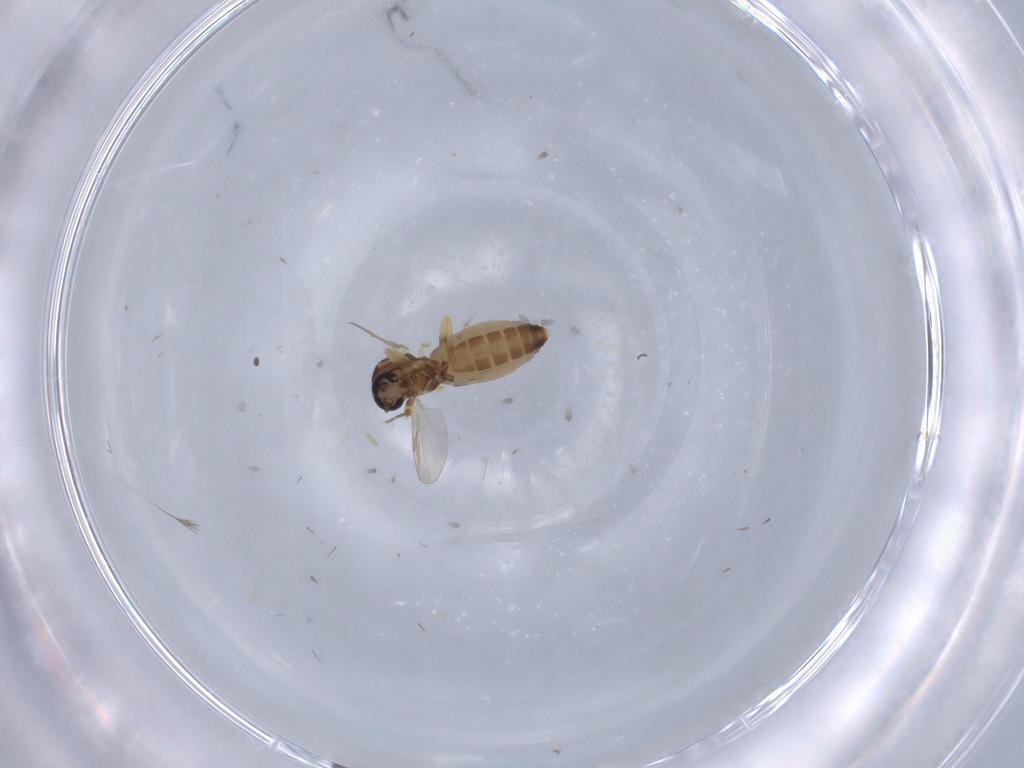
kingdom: Animalia
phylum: Arthropoda
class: Insecta
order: Diptera
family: Ceratopogonidae
